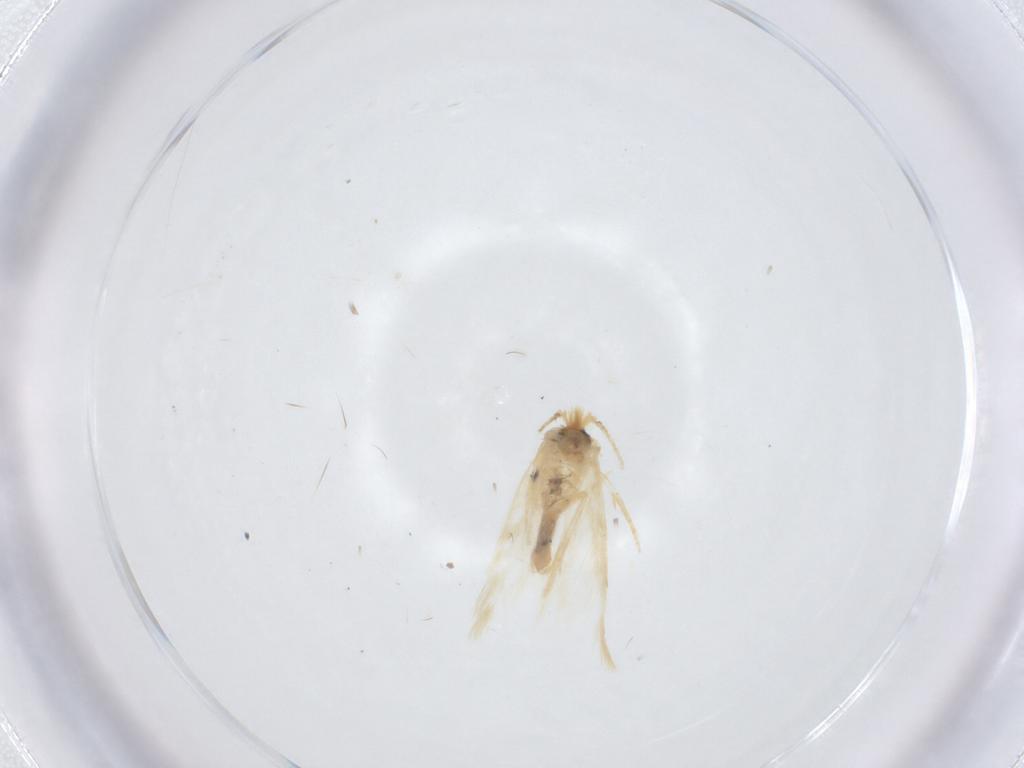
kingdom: Animalia
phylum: Arthropoda
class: Insecta
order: Lepidoptera
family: Nepticulidae
